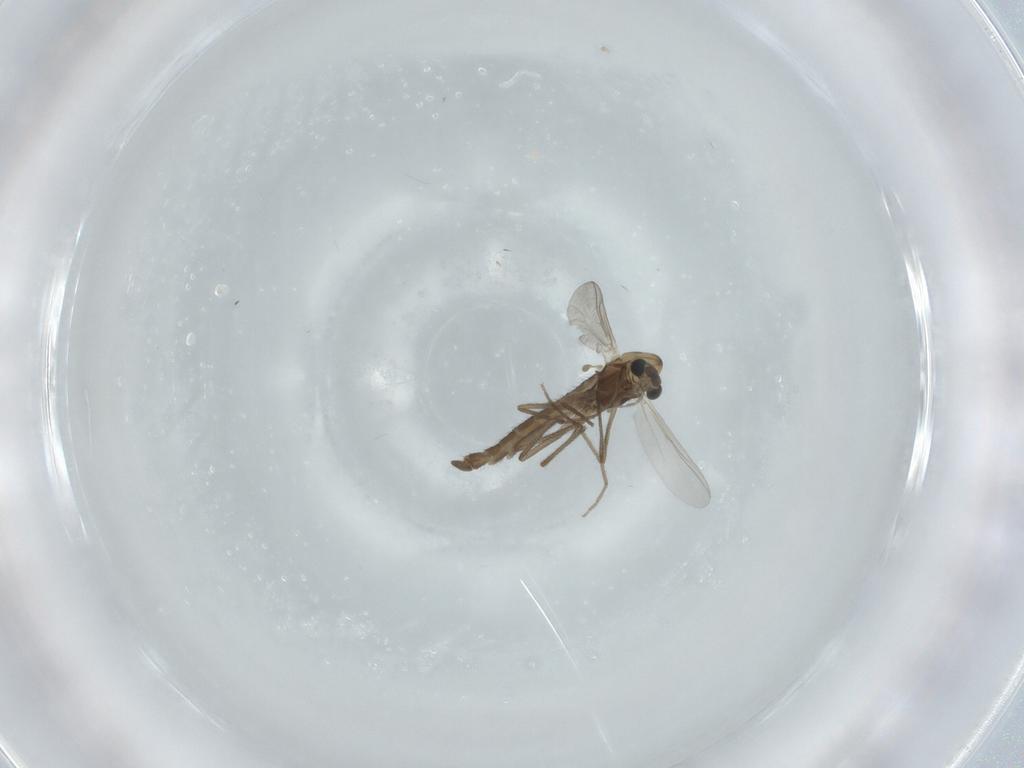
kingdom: Animalia
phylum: Arthropoda
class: Insecta
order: Diptera
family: Chironomidae
